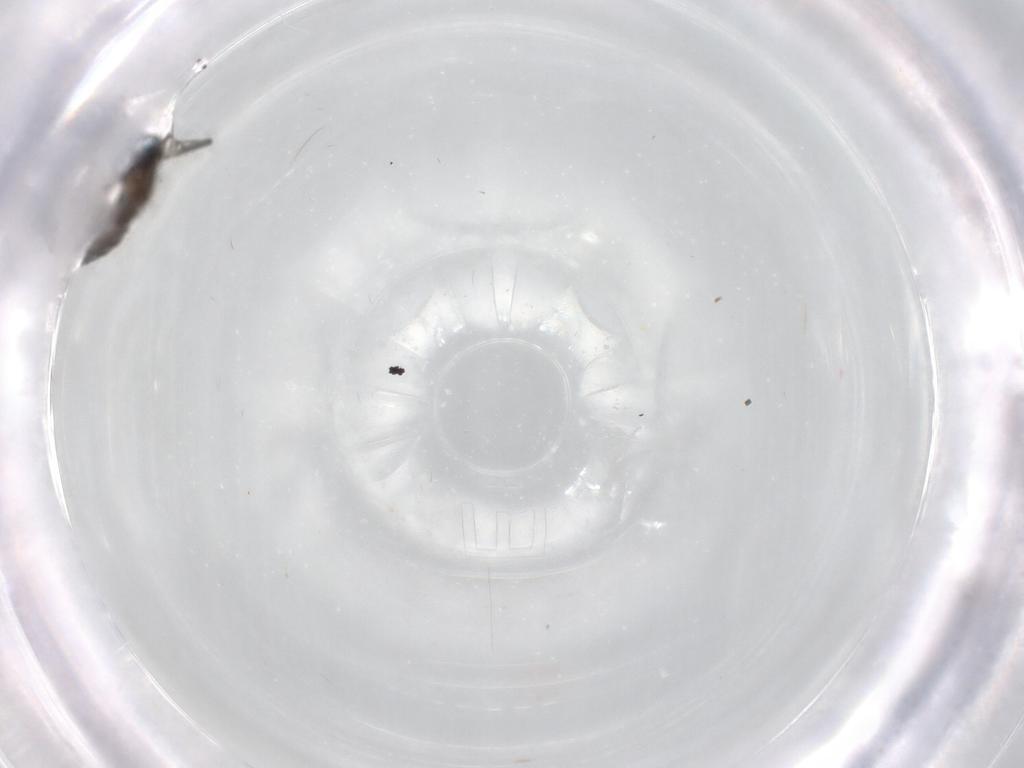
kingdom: Animalia
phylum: Arthropoda
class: Insecta
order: Diptera
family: Sciaridae
